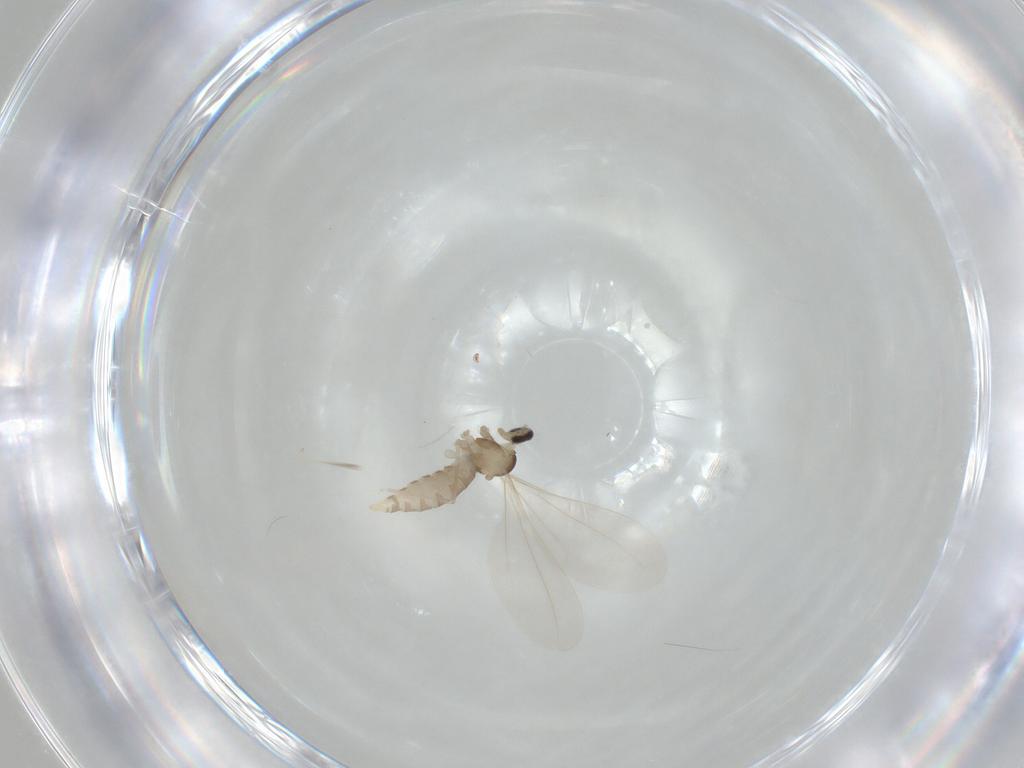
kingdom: Animalia
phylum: Arthropoda
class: Insecta
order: Diptera
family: Cecidomyiidae
